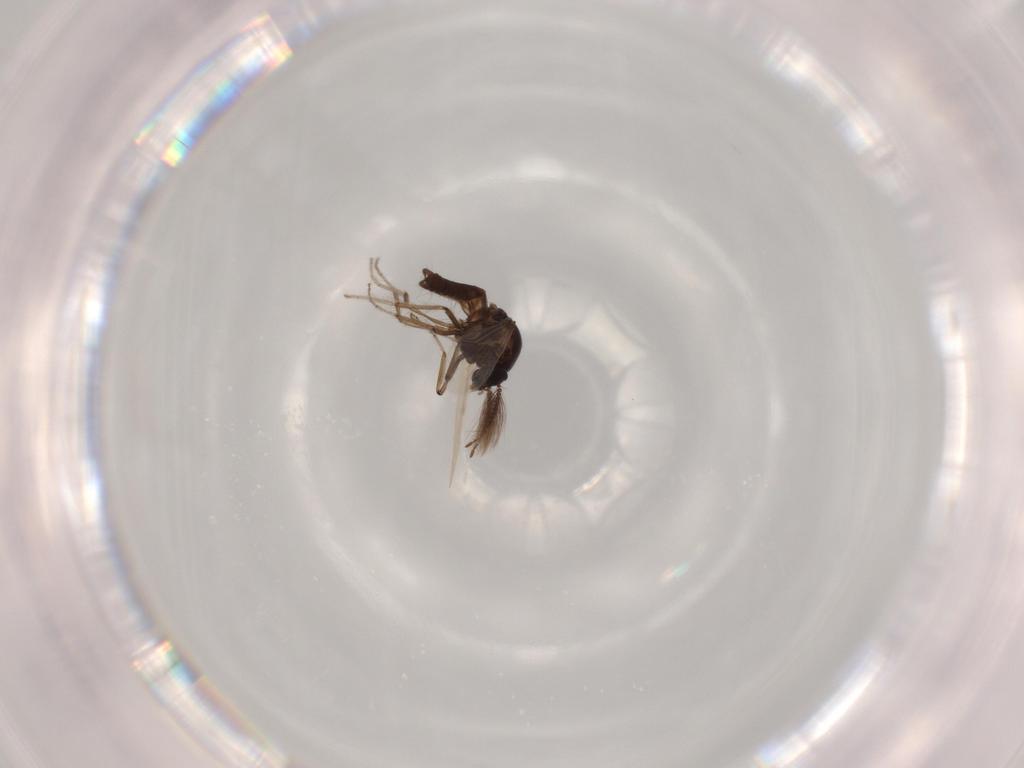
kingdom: Animalia
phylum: Arthropoda
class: Insecta
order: Diptera
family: Chironomidae
